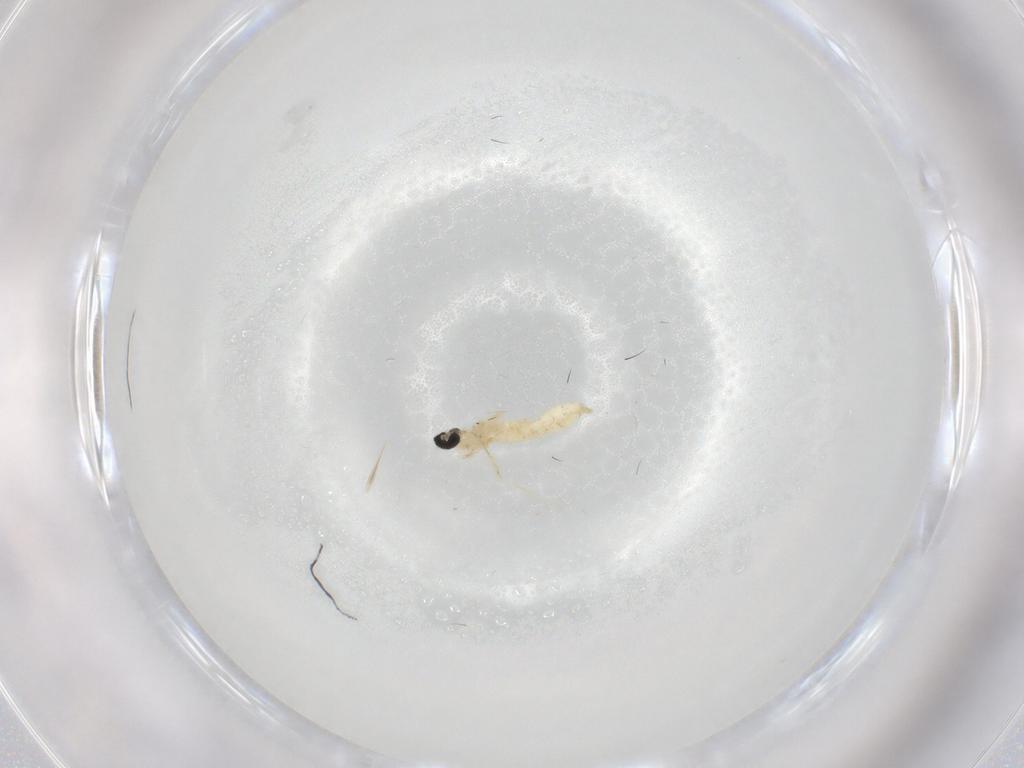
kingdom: Animalia
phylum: Arthropoda
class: Insecta
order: Diptera
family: Cecidomyiidae
